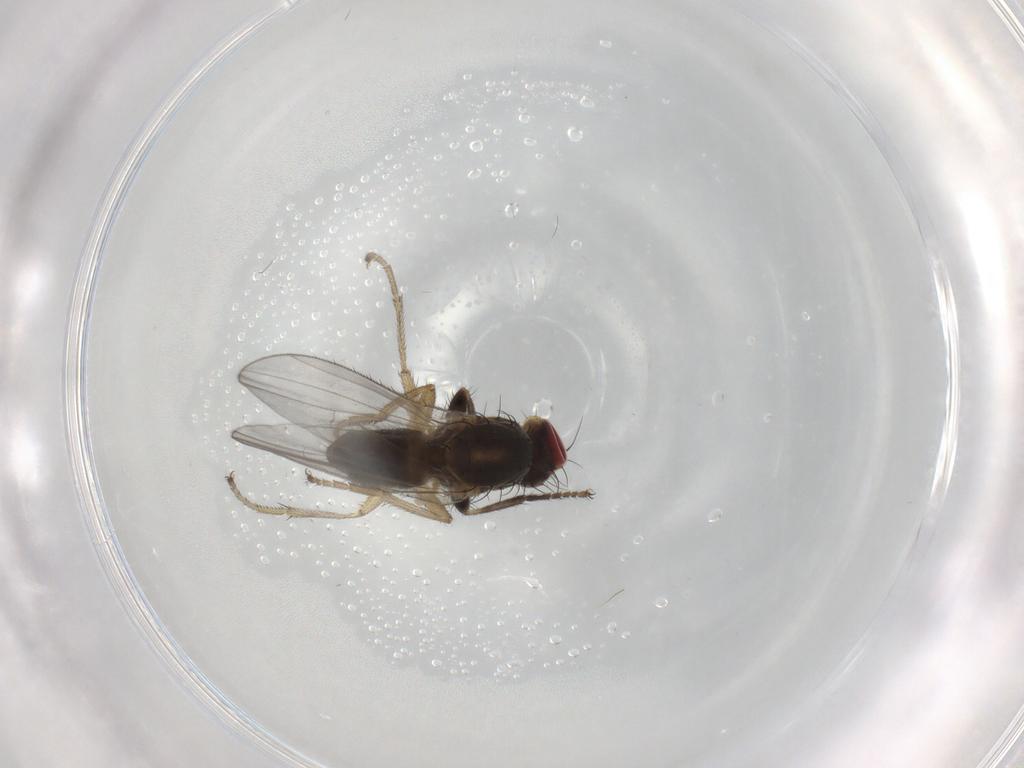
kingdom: Animalia
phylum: Arthropoda
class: Insecta
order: Diptera
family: Heleomyzidae
